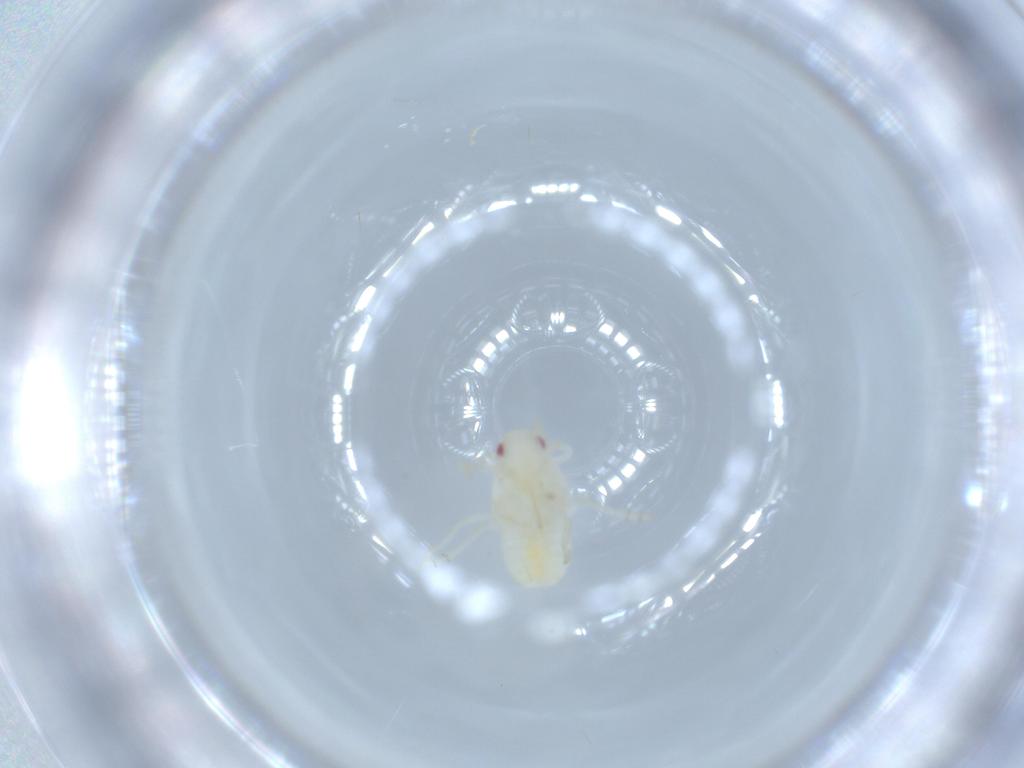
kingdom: Animalia
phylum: Arthropoda
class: Insecta
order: Hemiptera
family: Flatidae
